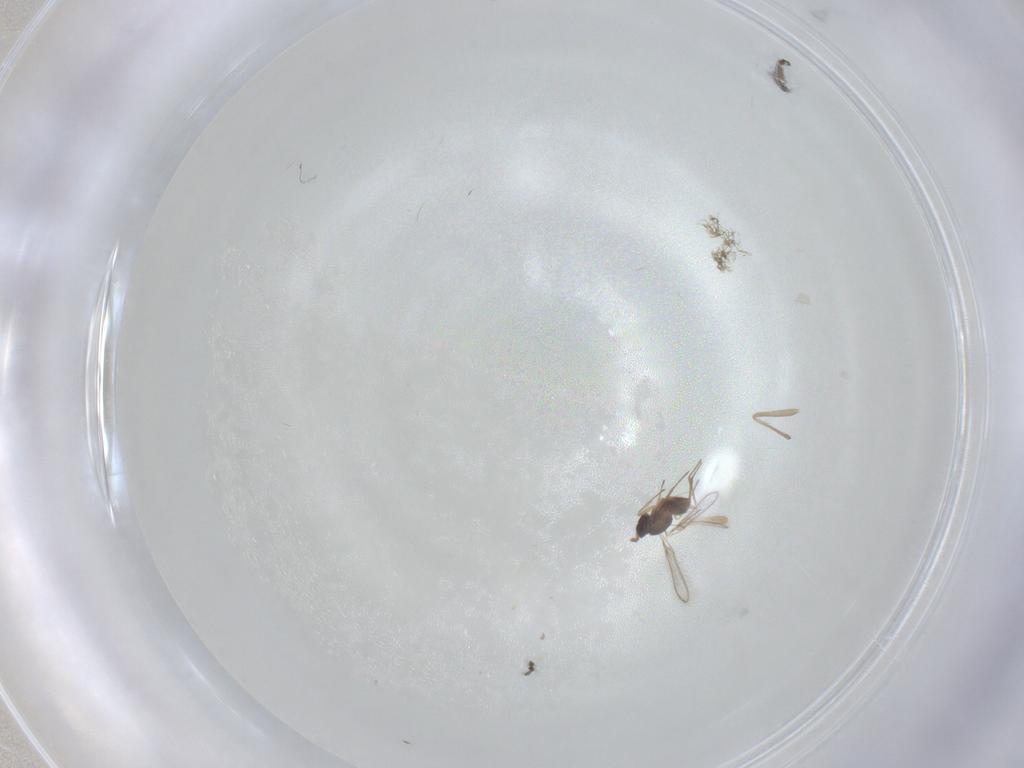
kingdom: Animalia
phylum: Arthropoda
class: Insecta
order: Hymenoptera
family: Mymaridae
